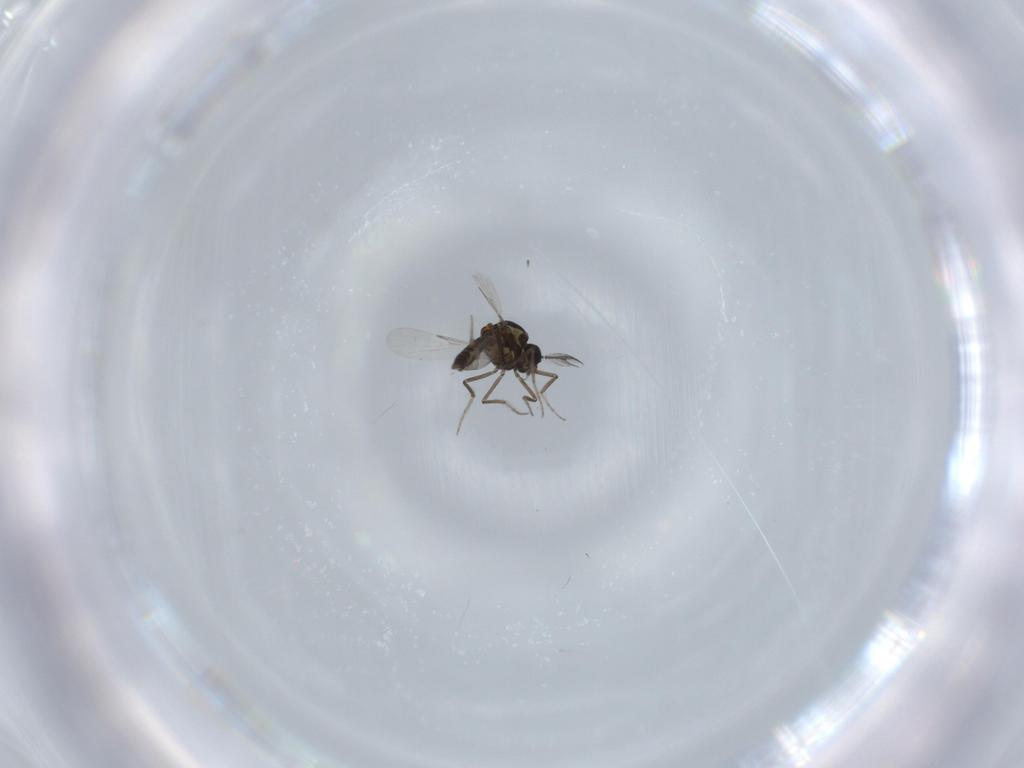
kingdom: Animalia
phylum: Arthropoda
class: Insecta
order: Diptera
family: Ceratopogonidae
